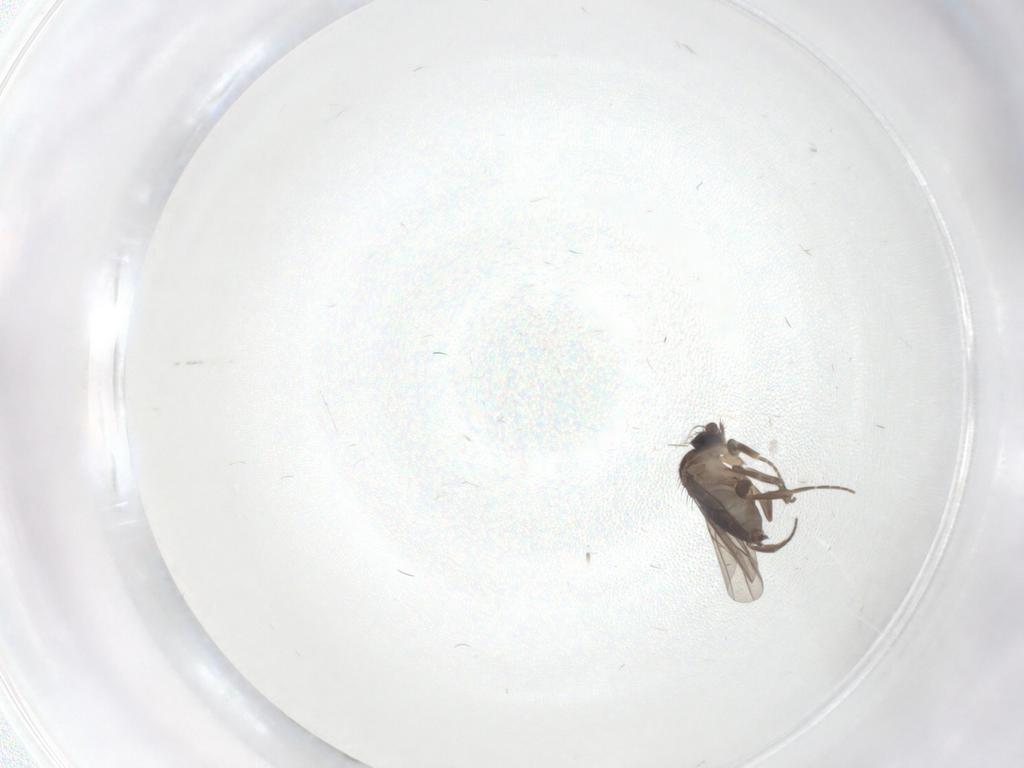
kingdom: Animalia
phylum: Arthropoda
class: Insecta
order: Diptera
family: Phoridae
